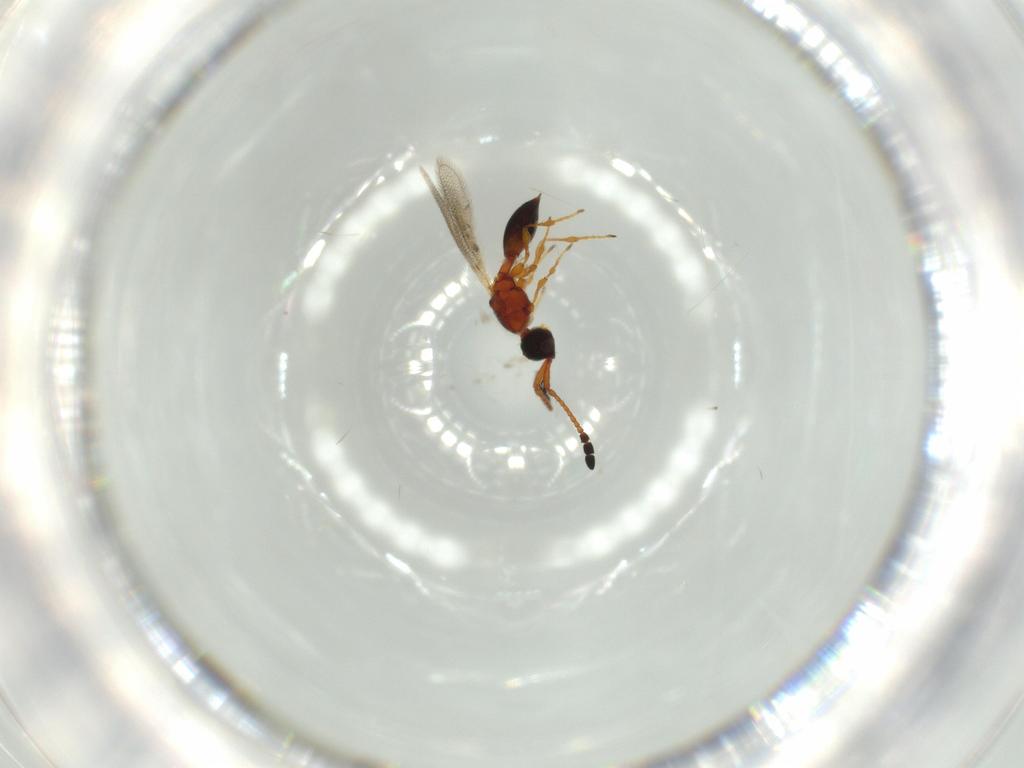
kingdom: Animalia
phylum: Arthropoda
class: Insecta
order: Hymenoptera
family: Diapriidae
